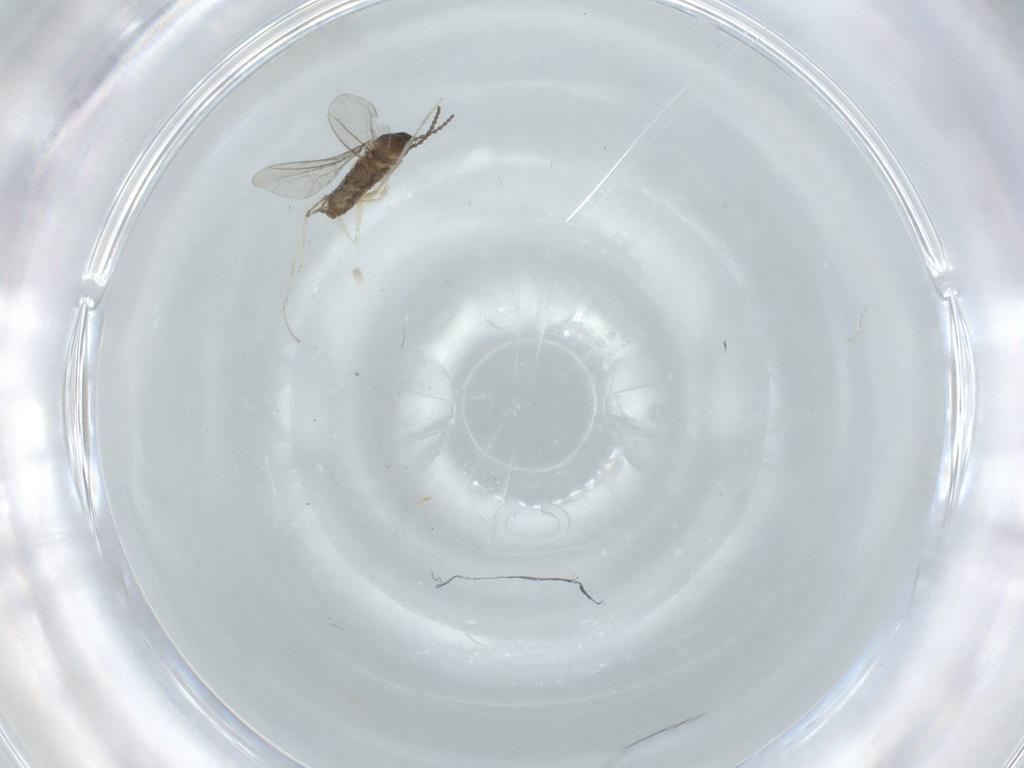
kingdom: Animalia
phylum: Arthropoda
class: Insecta
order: Diptera
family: Cecidomyiidae
